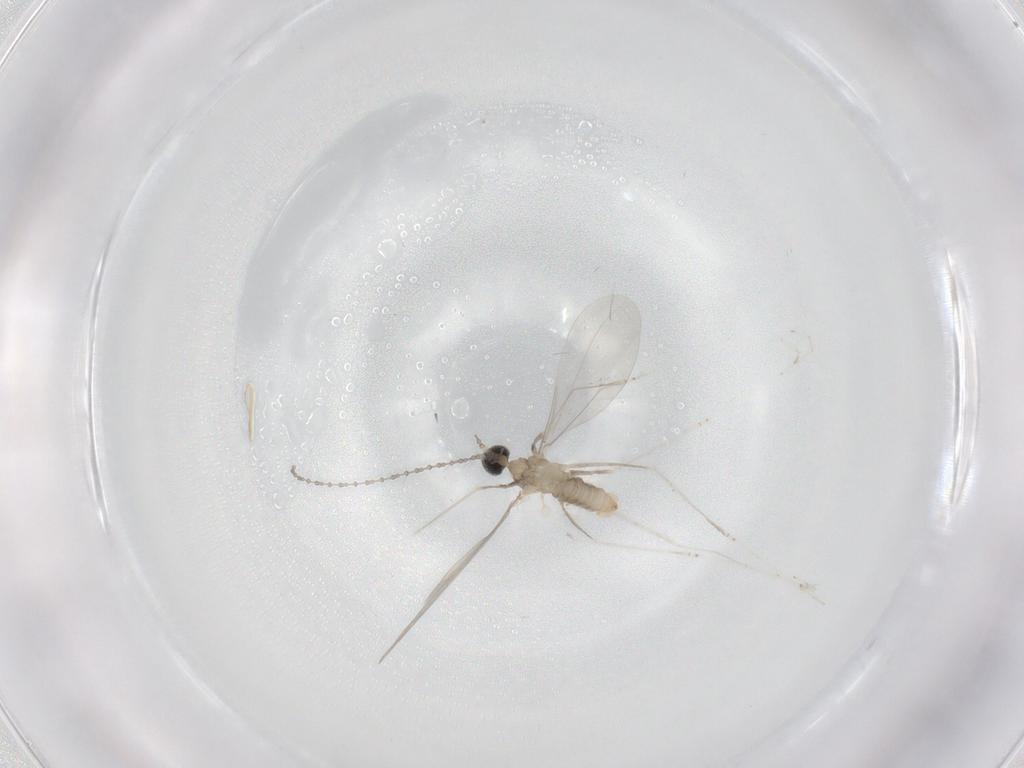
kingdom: Animalia
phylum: Arthropoda
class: Insecta
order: Diptera
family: Cecidomyiidae
